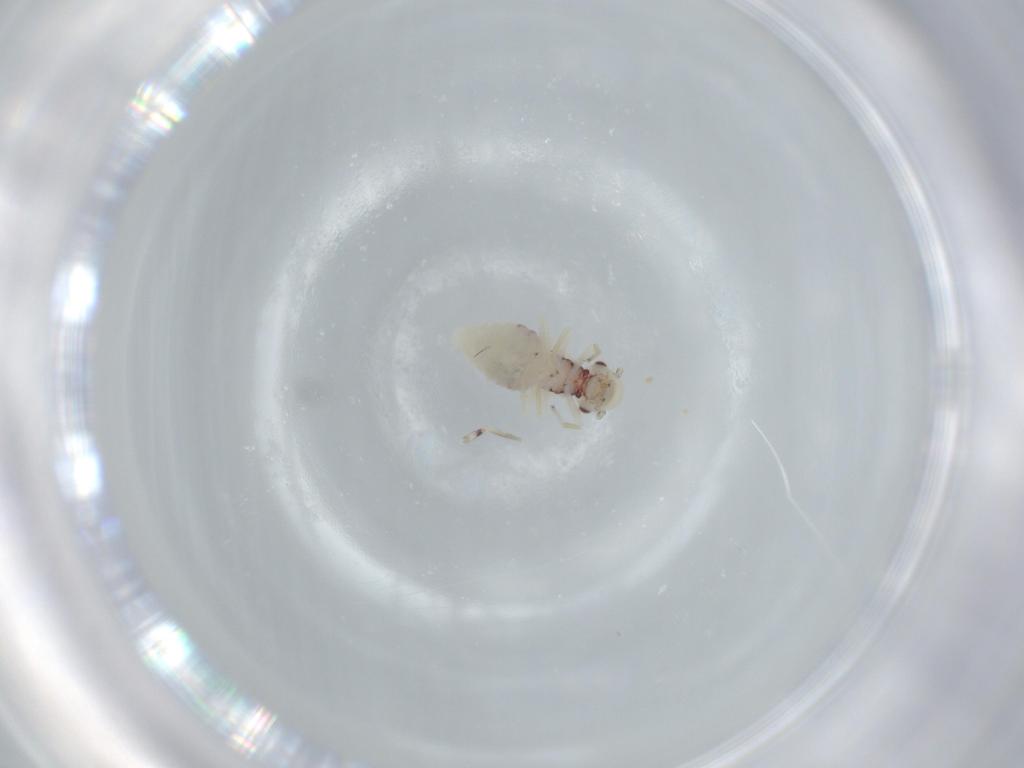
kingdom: Animalia
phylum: Arthropoda
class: Insecta
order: Psocodea
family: Caeciliusidae
